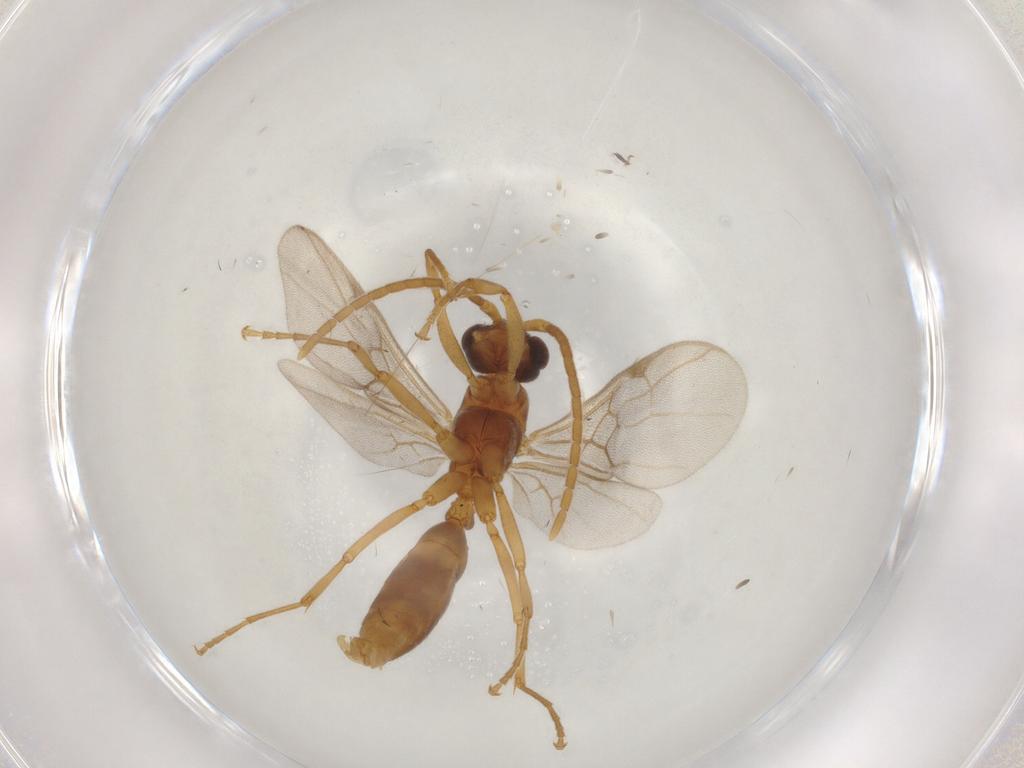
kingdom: Animalia
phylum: Arthropoda
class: Insecta
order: Hymenoptera
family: Formicidae
